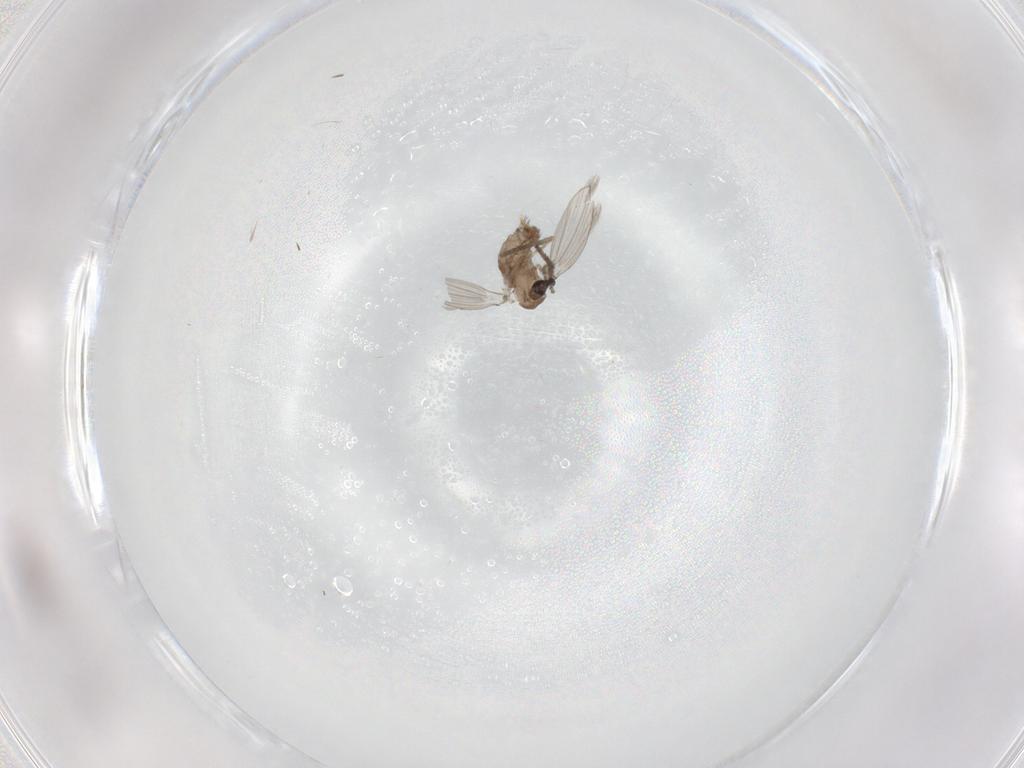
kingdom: Animalia
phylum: Arthropoda
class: Insecta
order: Diptera
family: Psychodidae
